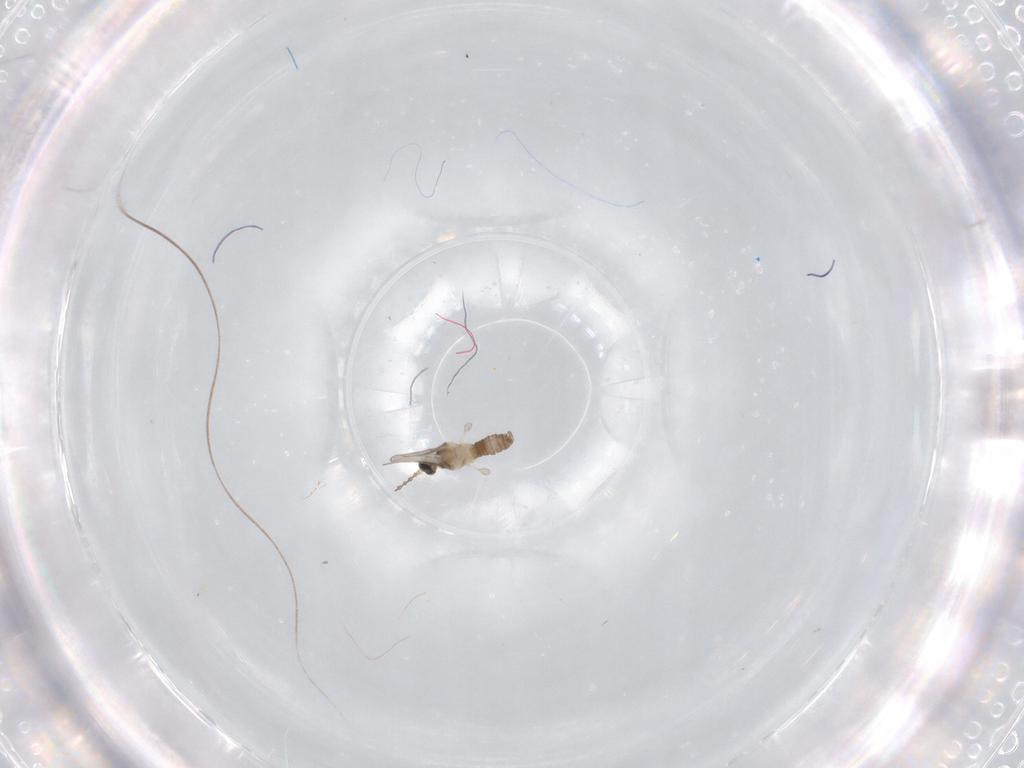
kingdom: Animalia
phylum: Arthropoda
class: Insecta
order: Diptera
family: Cecidomyiidae
